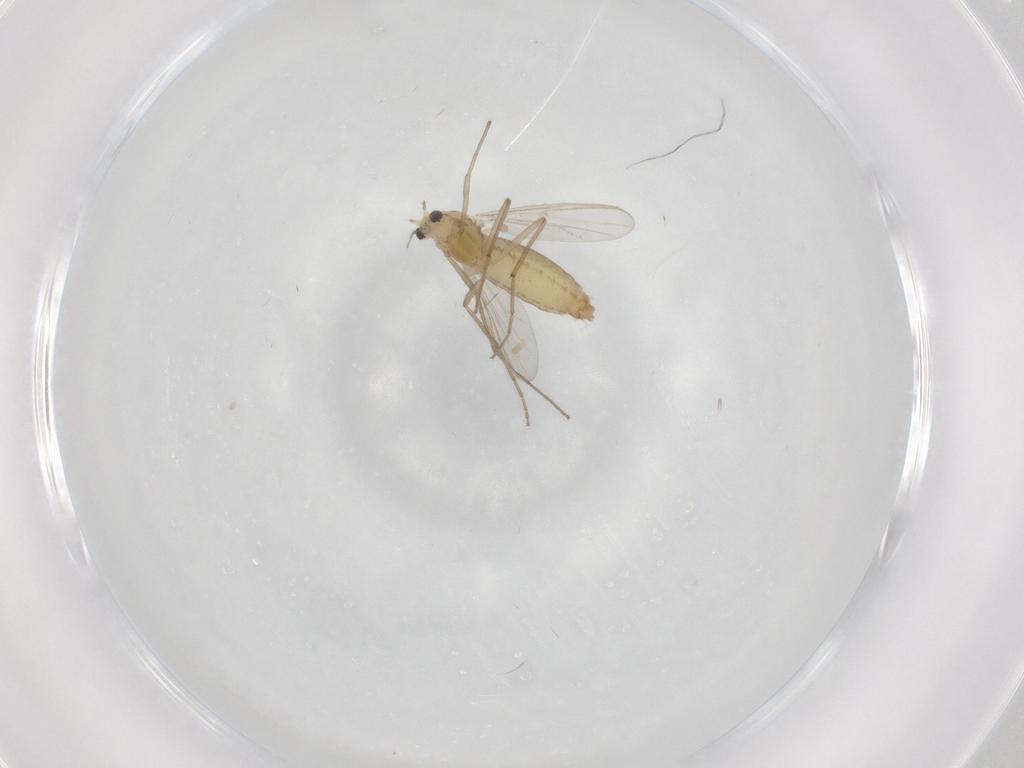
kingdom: Animalia
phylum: Arthropoda
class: Insecta
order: Diptera
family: Chironomidae
